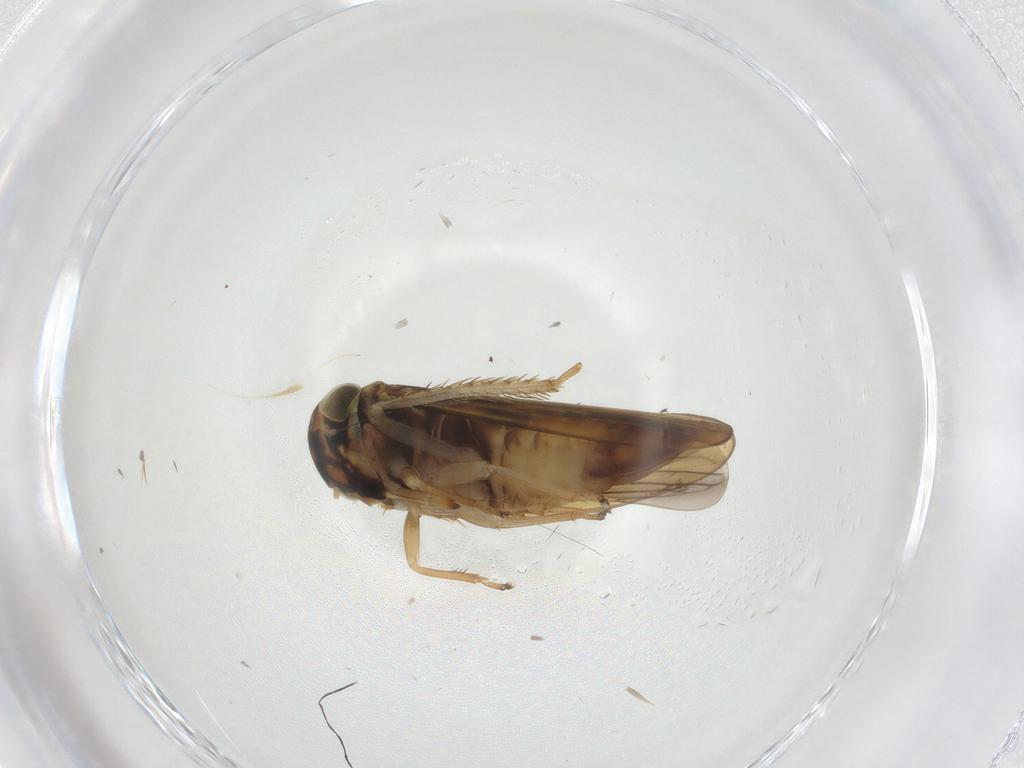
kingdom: Animalia
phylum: Arthropoda
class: Insecta
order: Hemiptera
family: Cicadellidae
